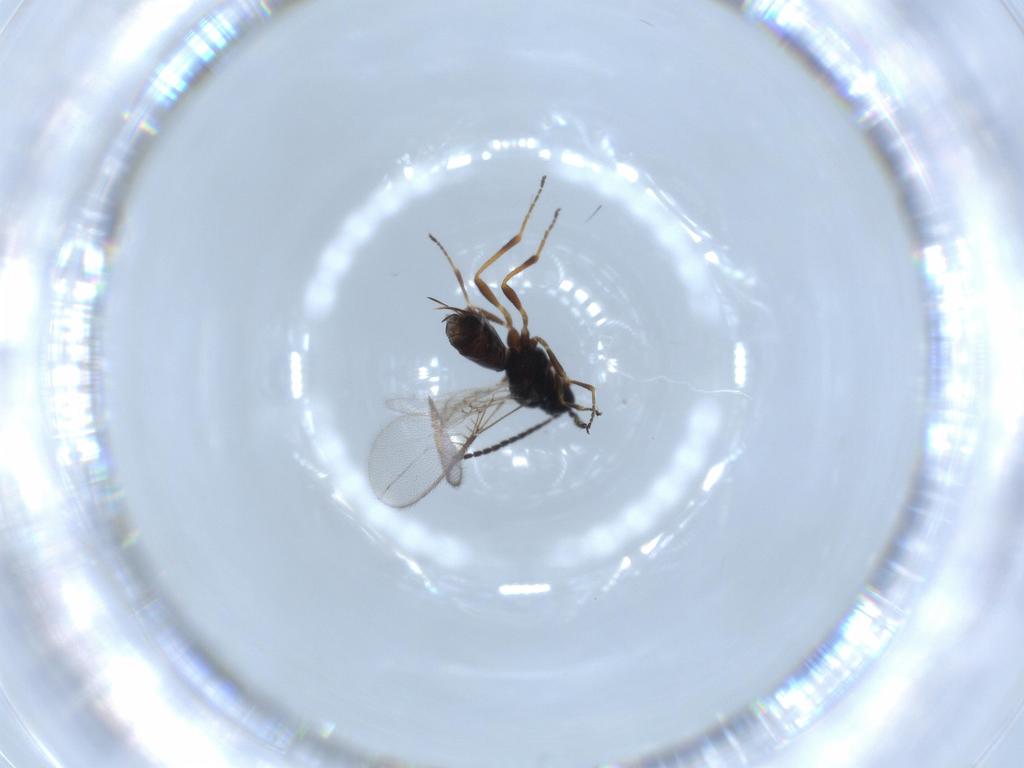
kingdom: Animalia
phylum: Arthropoda
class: Insecta
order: Hymenoptera
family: Braconidae
